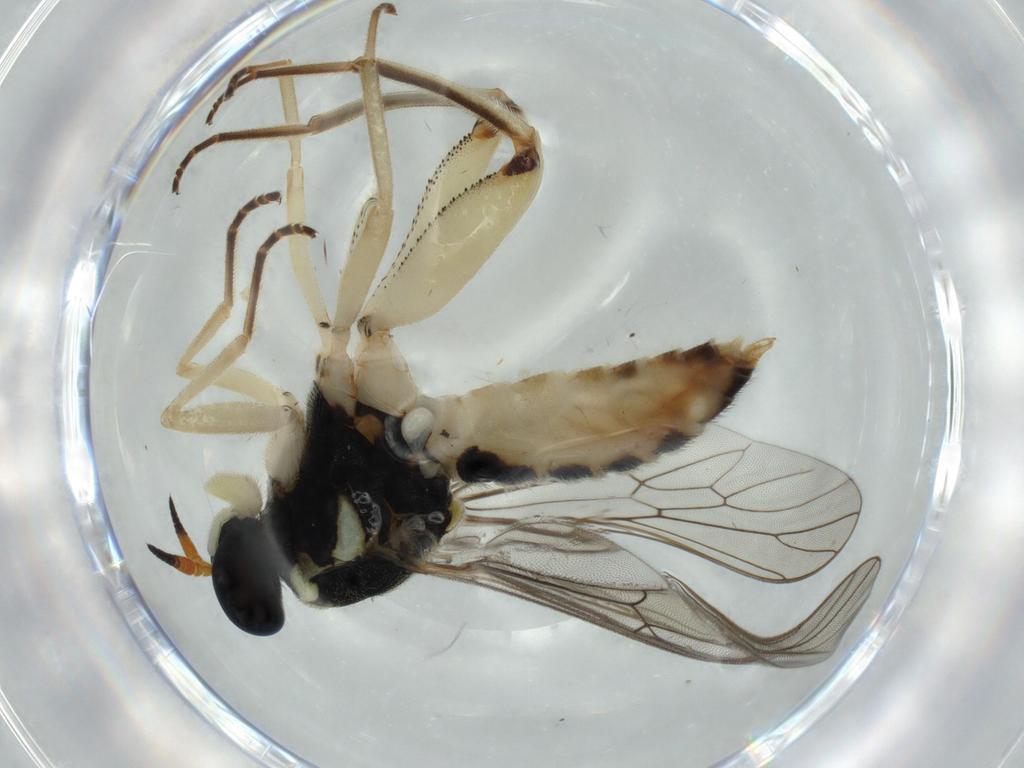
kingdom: Animalia
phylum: Arthropoda
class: Insecta
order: Diptera
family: Sciaridae
